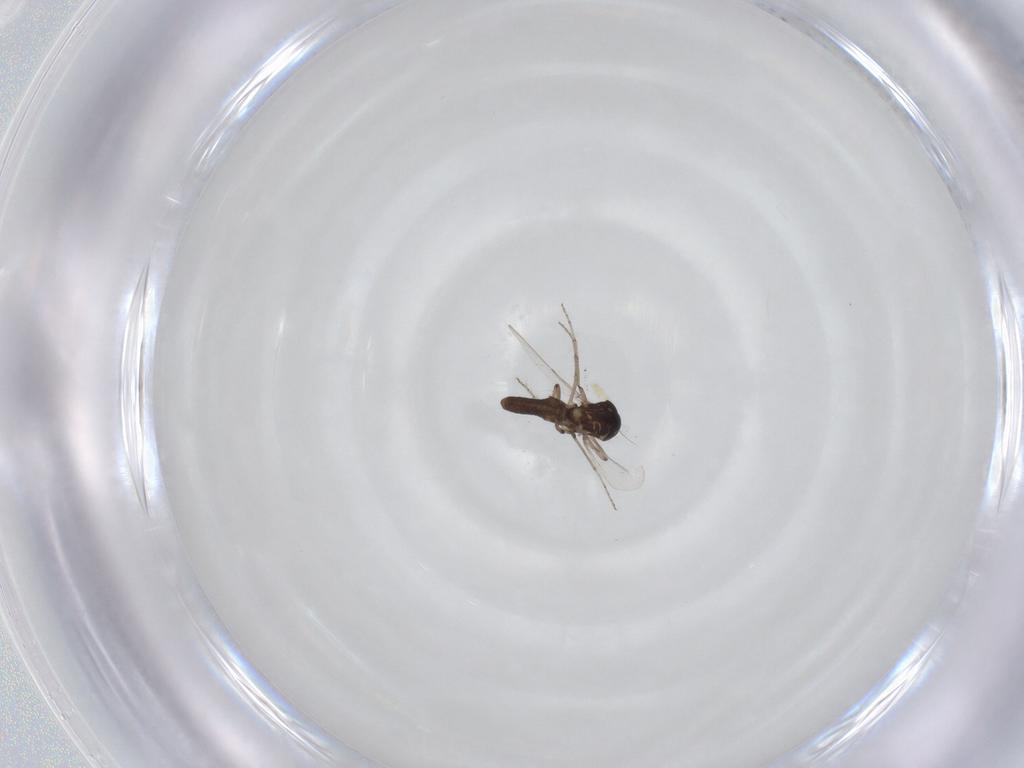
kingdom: Animalia
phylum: Arthropoda
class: Insecta
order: Diptera
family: Ceratopogonidae
